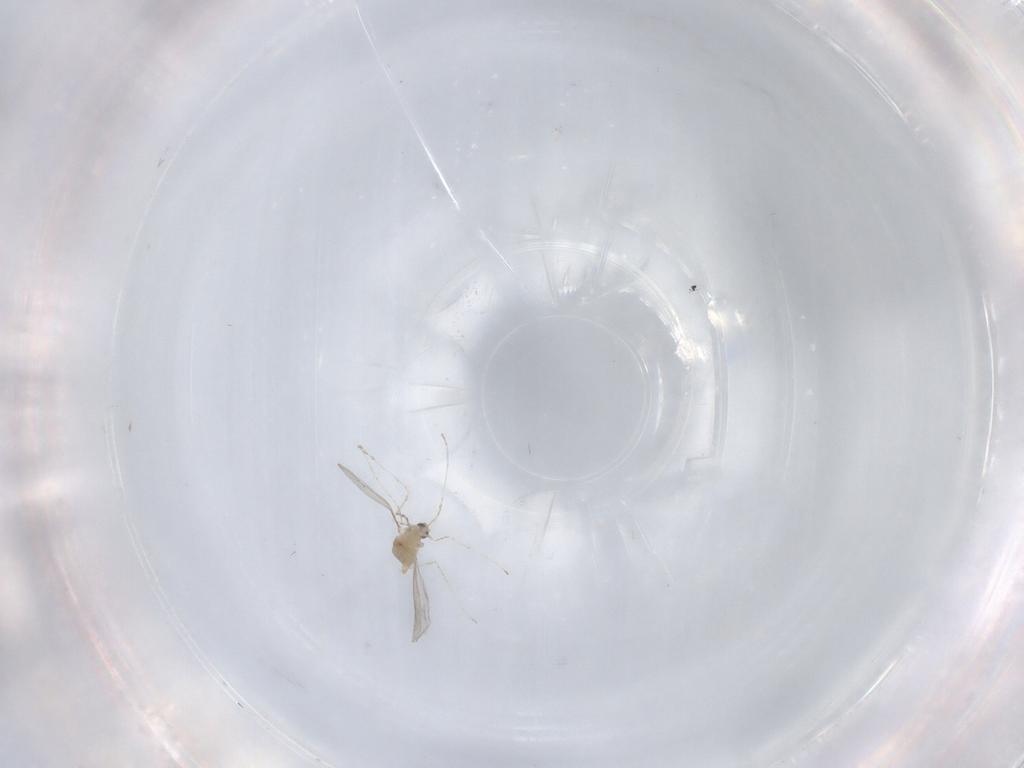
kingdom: Animalia
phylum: Arthropoda
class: Insecta
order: Diptera
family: Cecidomyiidae
